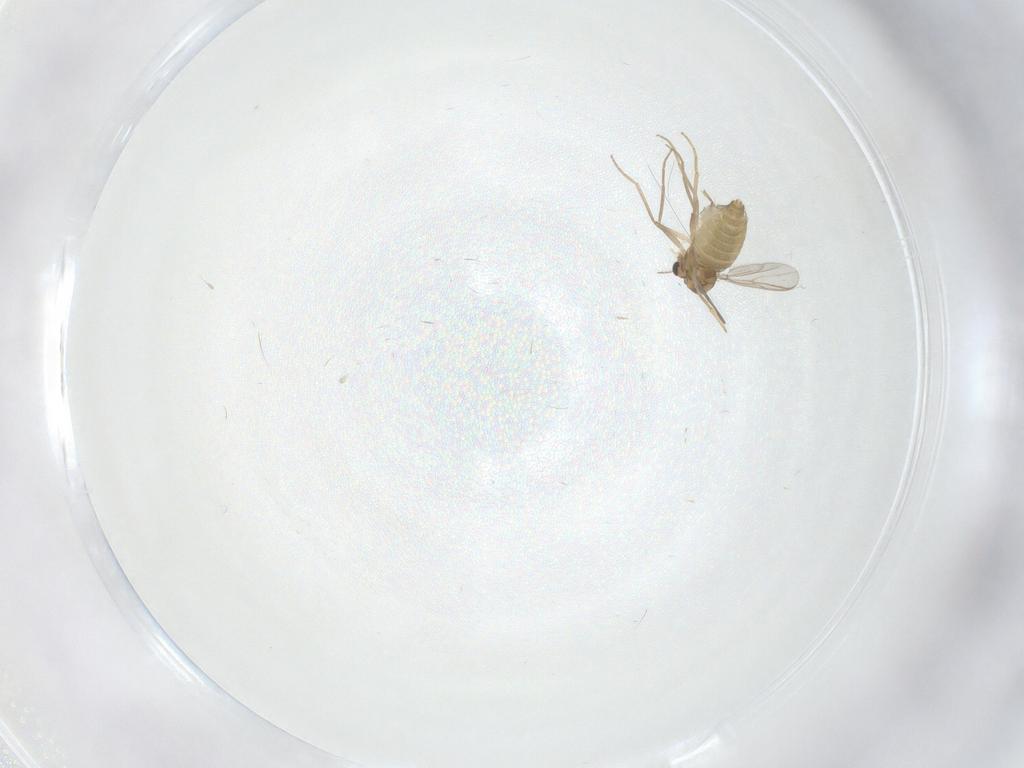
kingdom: Animalia
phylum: Arthropoda
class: Insecta
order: Diptera
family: Chironomidae
